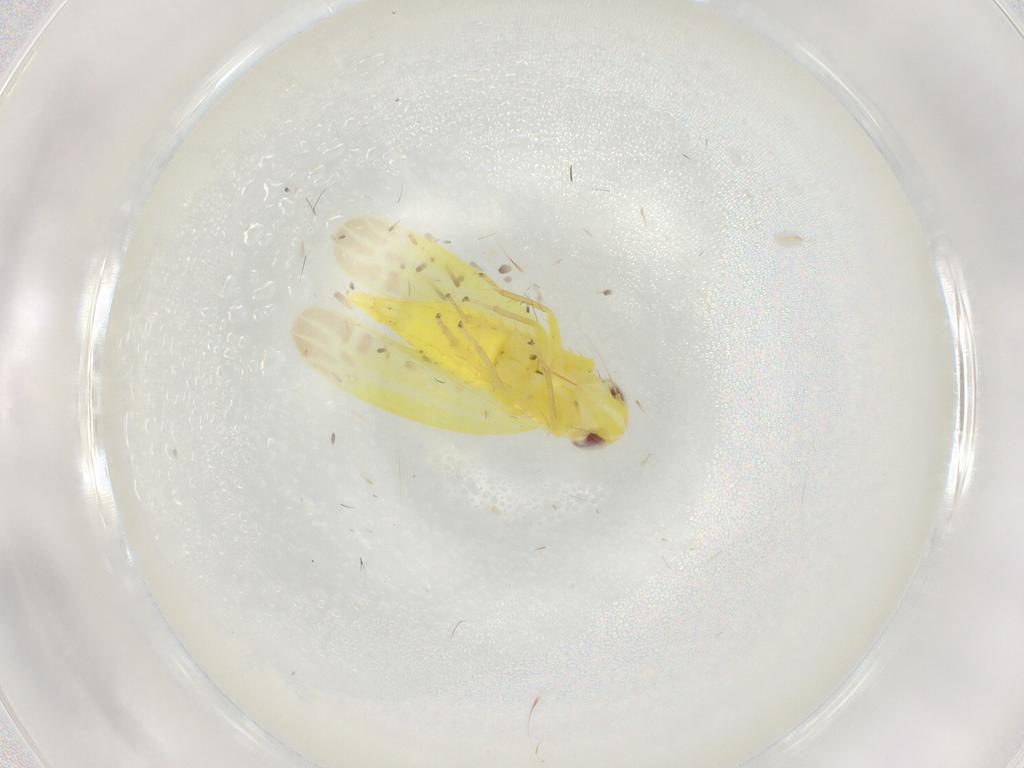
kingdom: Animalia
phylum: Arthropoda
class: Insecta
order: Hemiptera
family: Cicadellidae
